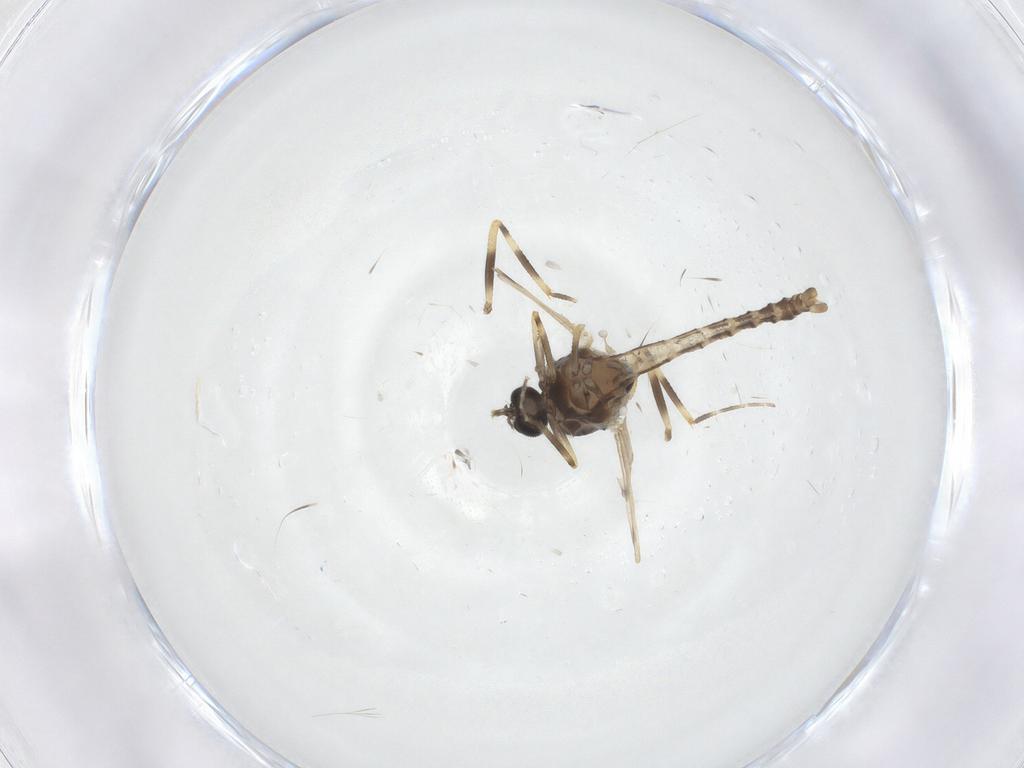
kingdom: Animalia
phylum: Arthropoda
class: Insecta
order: Diptera
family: Ceratopogonidae
